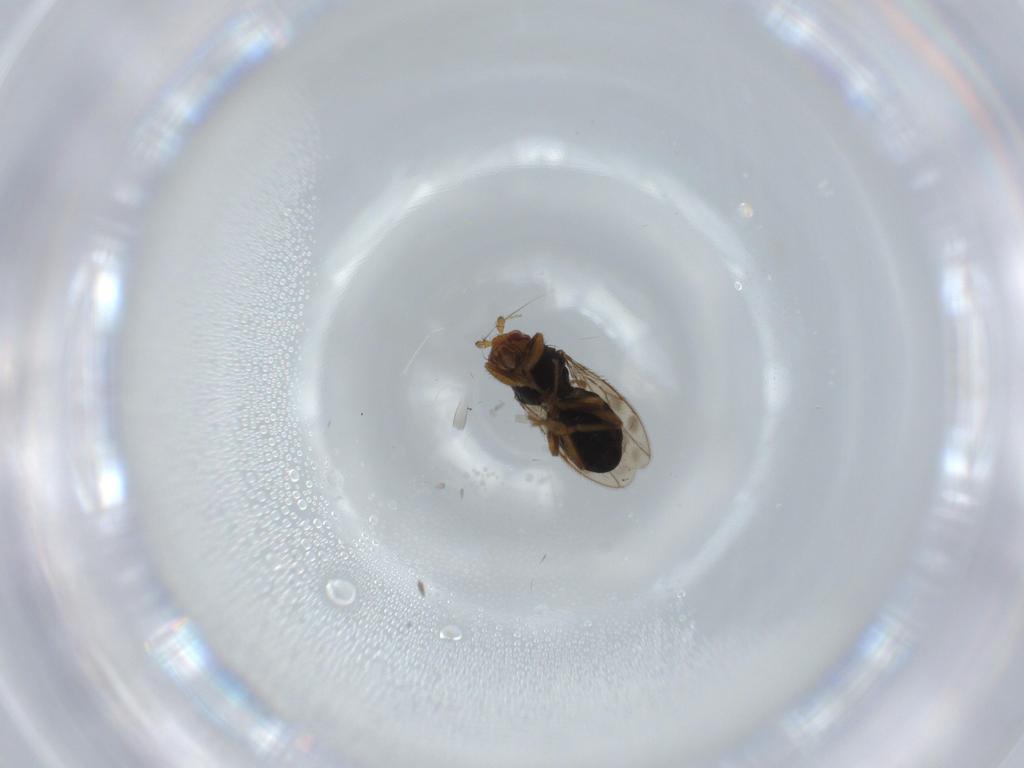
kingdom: Animalia
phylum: Arthropoda
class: Insecta
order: Diptera
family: Sphaeroceridae
